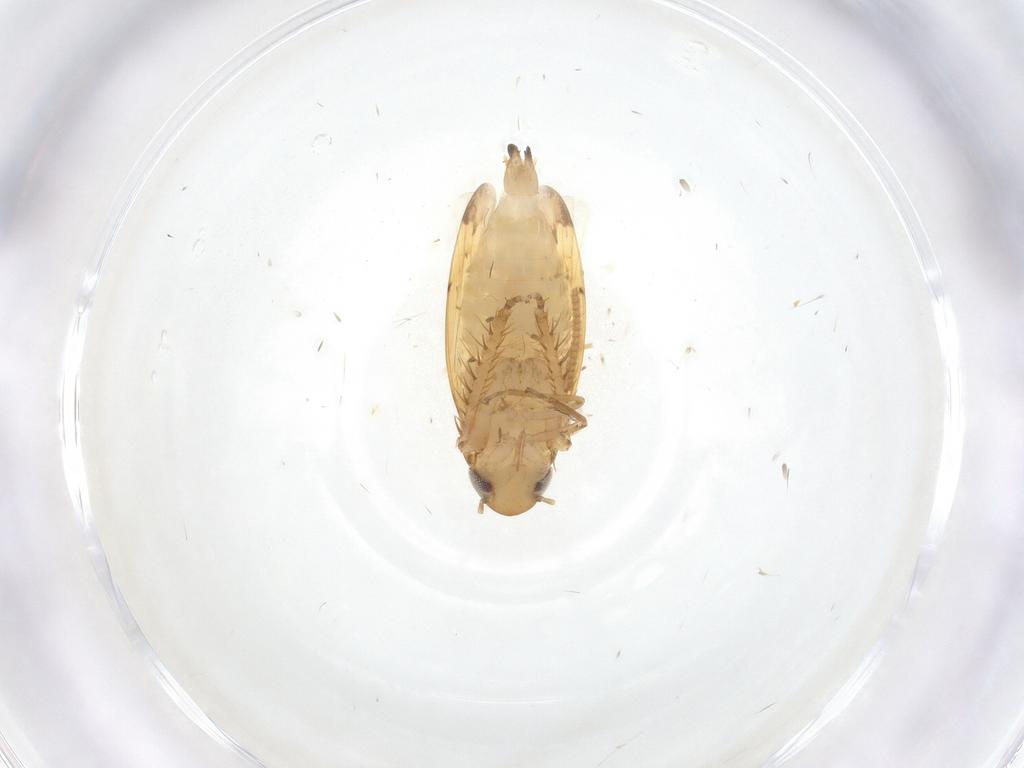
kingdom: Animalia
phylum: Arthropoda
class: Insecta
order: Hemiptera
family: Cicadellidae
